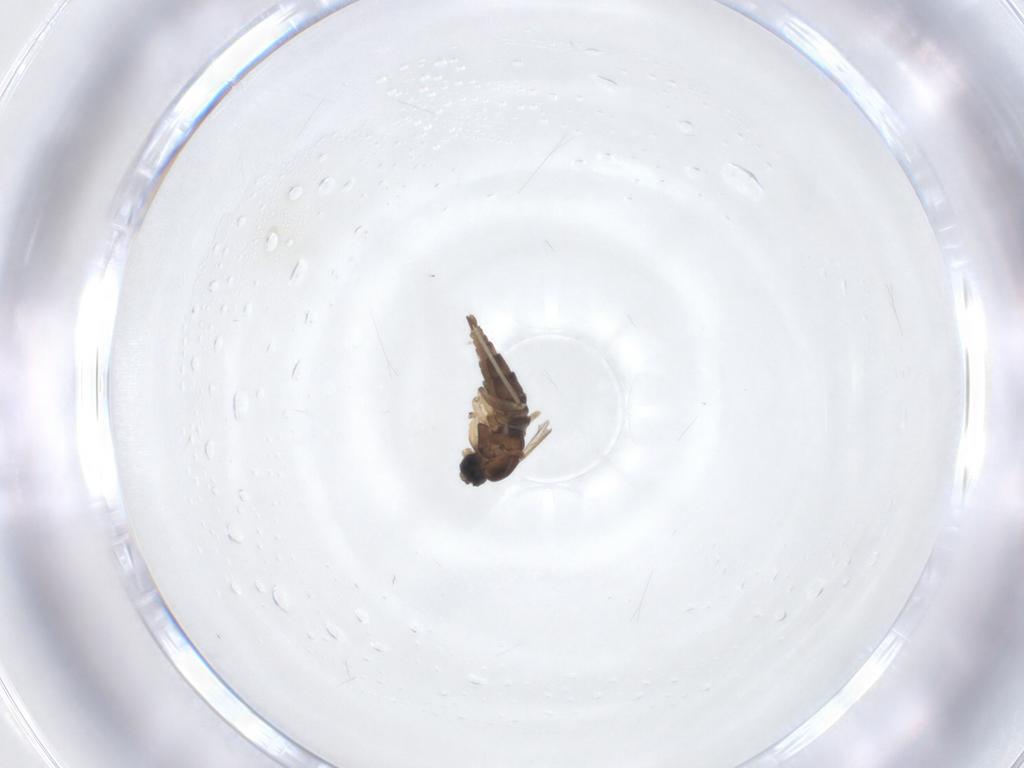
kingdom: Animalia
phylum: Arthropoda
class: Insecta
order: Diptera
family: Sciaridae
